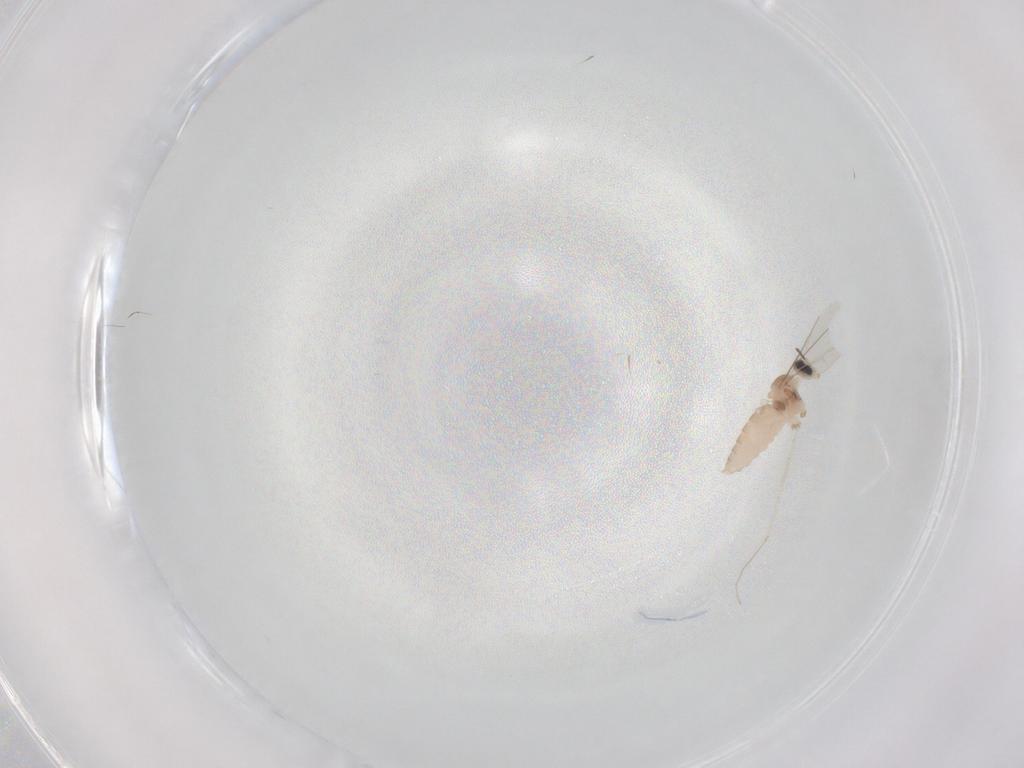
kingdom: Animalia
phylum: Arthropoda
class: Insecta
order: Diptera
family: Cecidomyiidae
